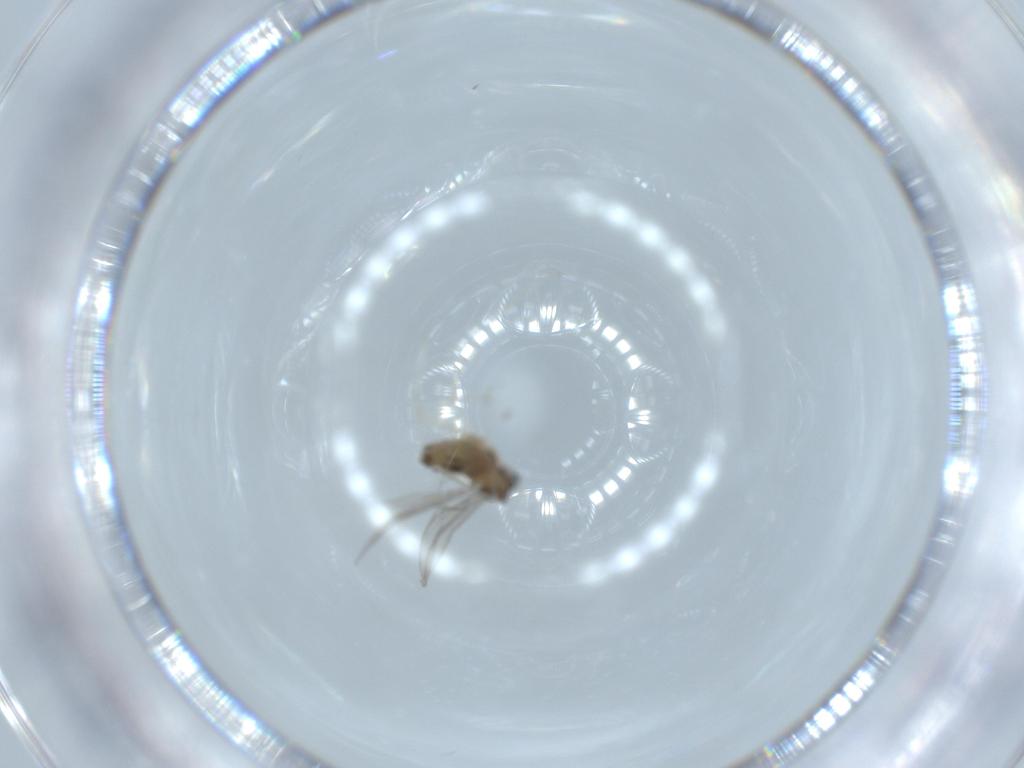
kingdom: Animalia
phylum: Arthropoda
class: Insecta
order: Diptera
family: Cecidomyiidae
